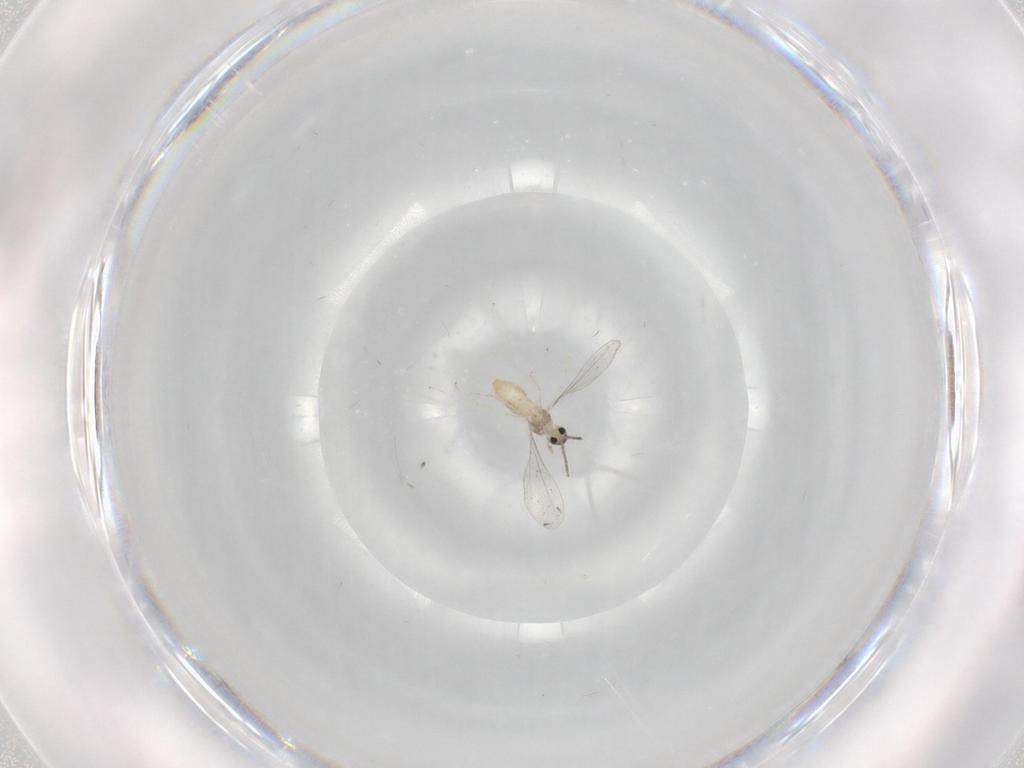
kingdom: Animalia
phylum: Arthropoda
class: Insecta
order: Diptera
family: Cecidomyiidae
